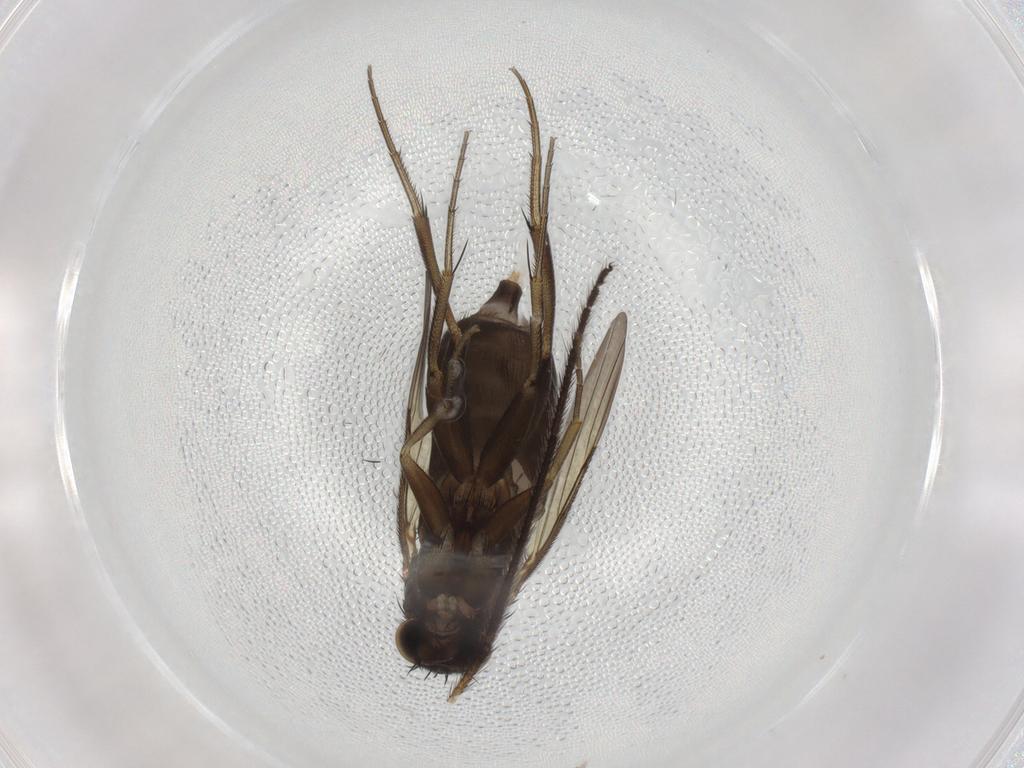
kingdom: Animalia
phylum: Arthropoda
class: Insecta
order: Diptera
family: Phoridae
